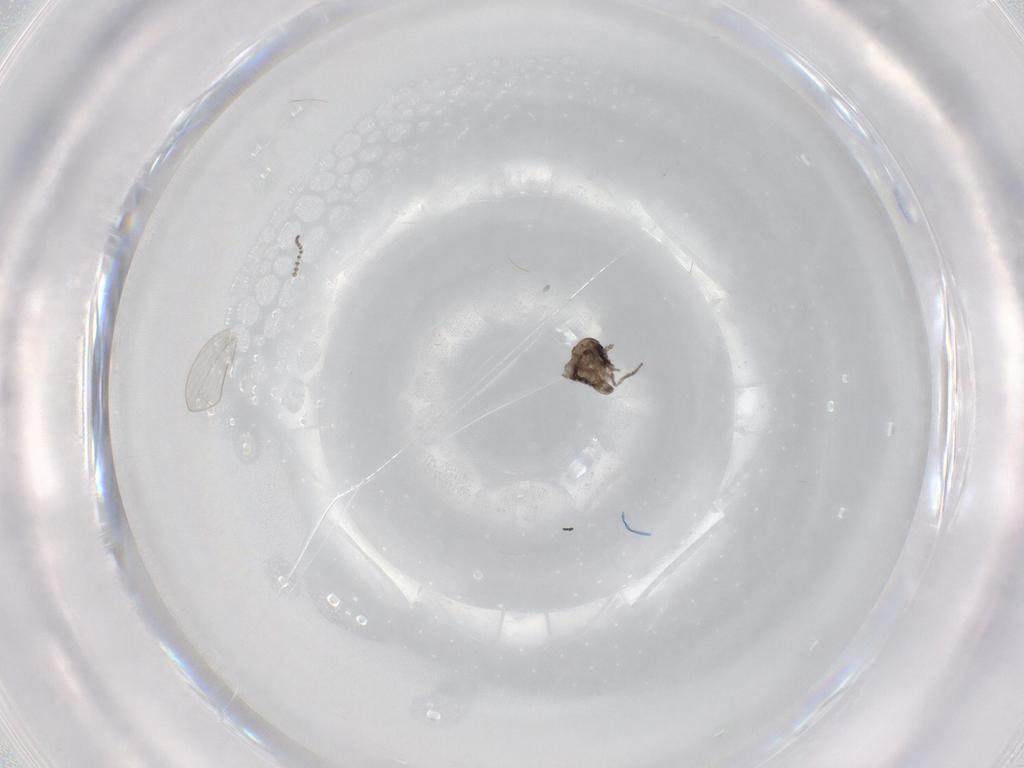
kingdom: Animalia
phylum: Arthropoda
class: Insecta
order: Diptera
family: Psychodidae
